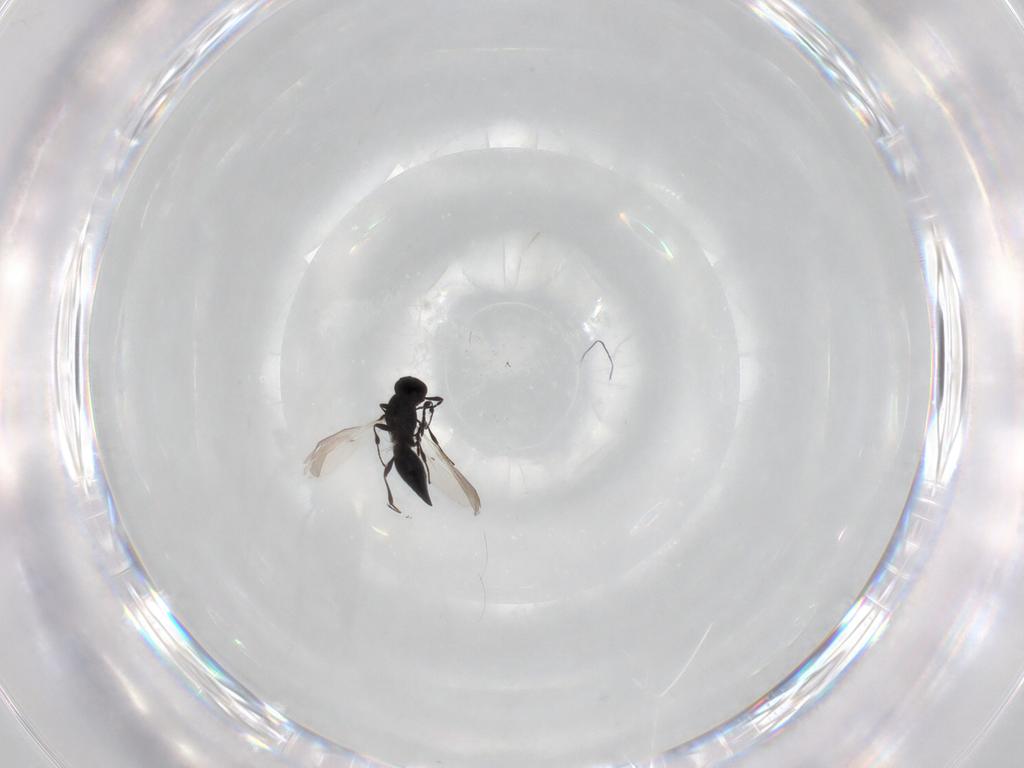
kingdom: Animalia
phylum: Arthropoda
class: Insecta
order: Hymenoptera
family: Platygastridae
